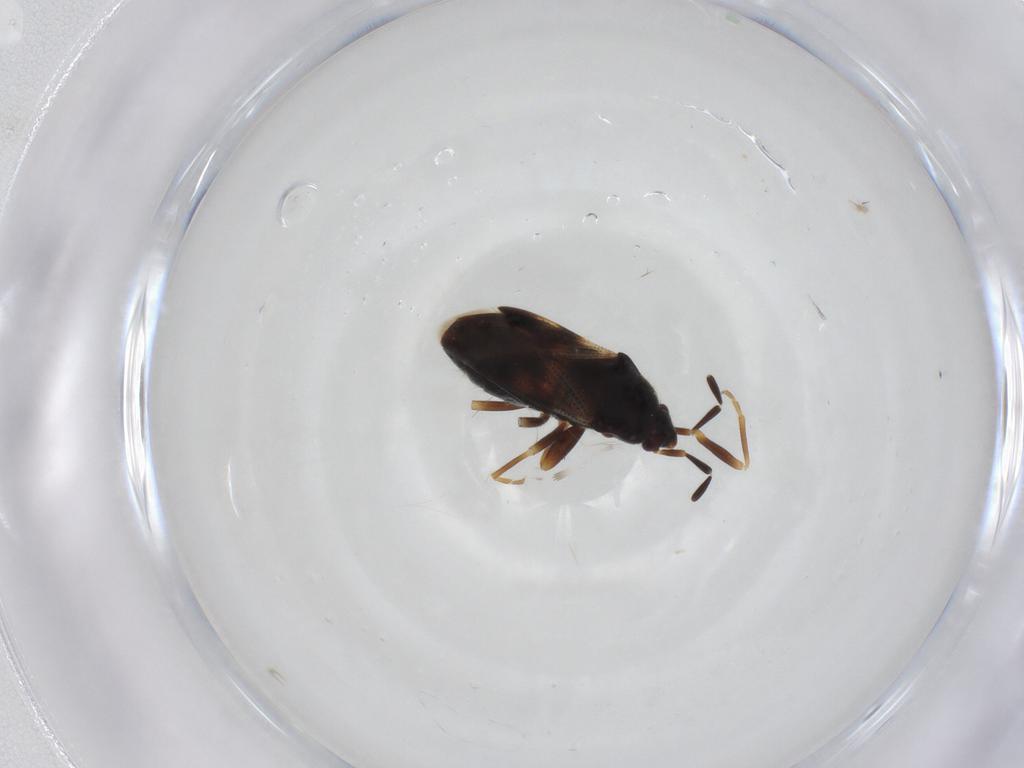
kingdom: Animalia
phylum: Arthropoda
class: Insecta
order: Hemiptera
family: Rhyparochromidae
